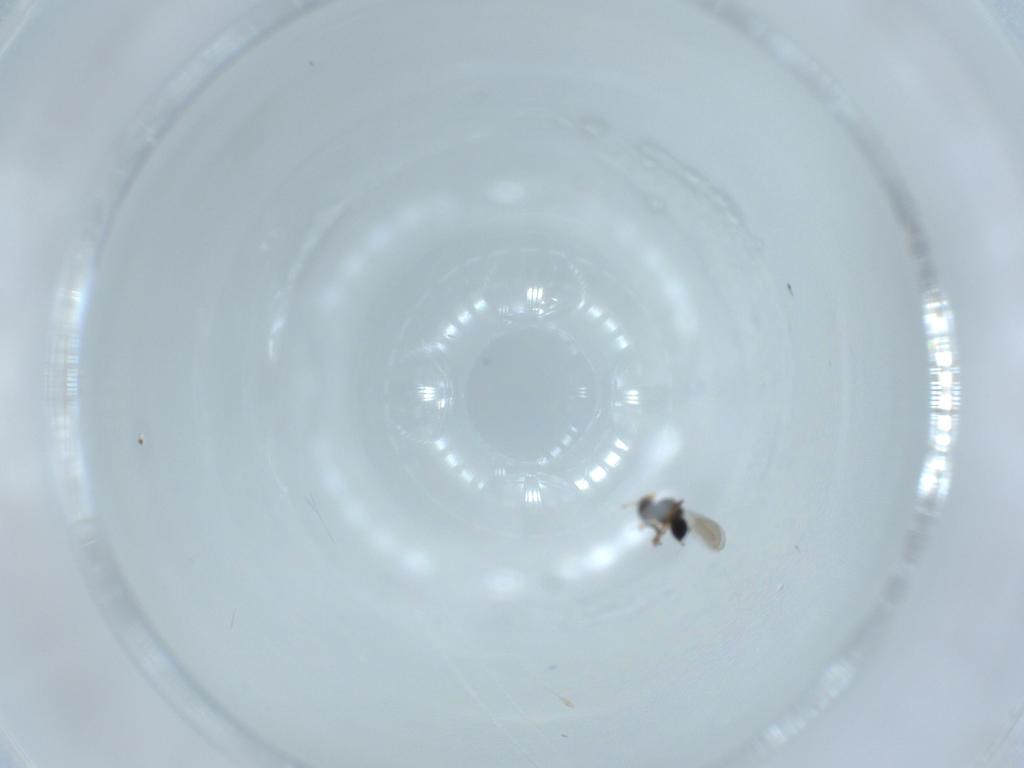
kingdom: Animalia
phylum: Arthropoda
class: Insecta
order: Hymenoptera
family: Platygastridae
